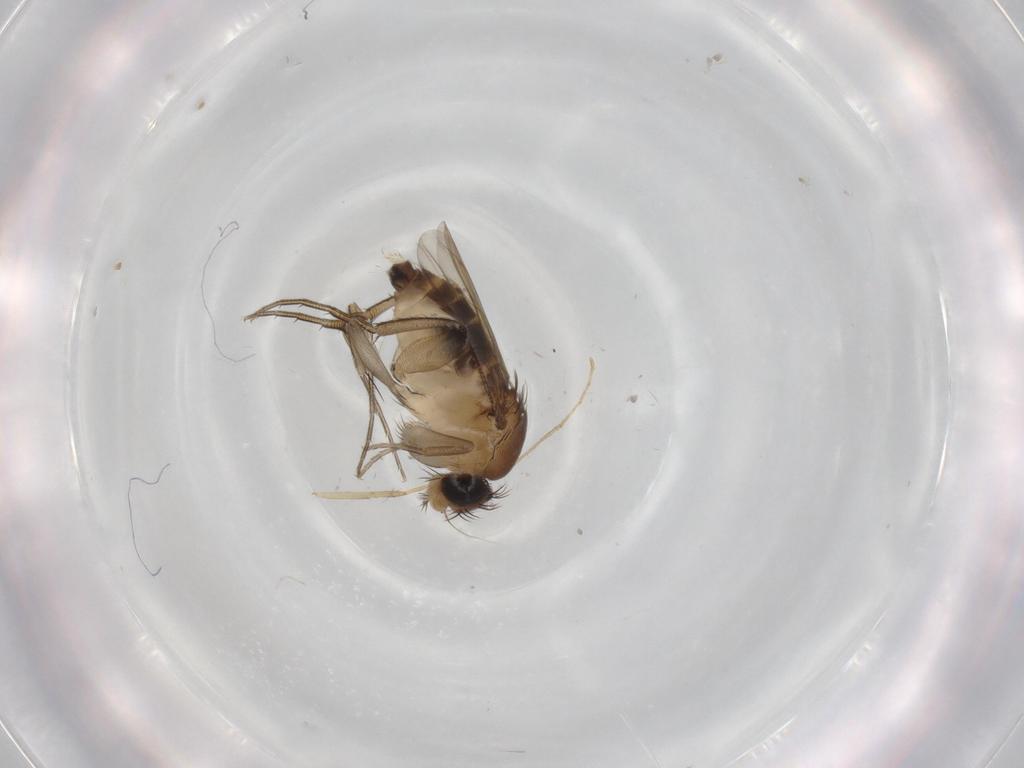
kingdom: Animalia
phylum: Arthropoda
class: Insecta
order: Diptera
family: Phoridae
